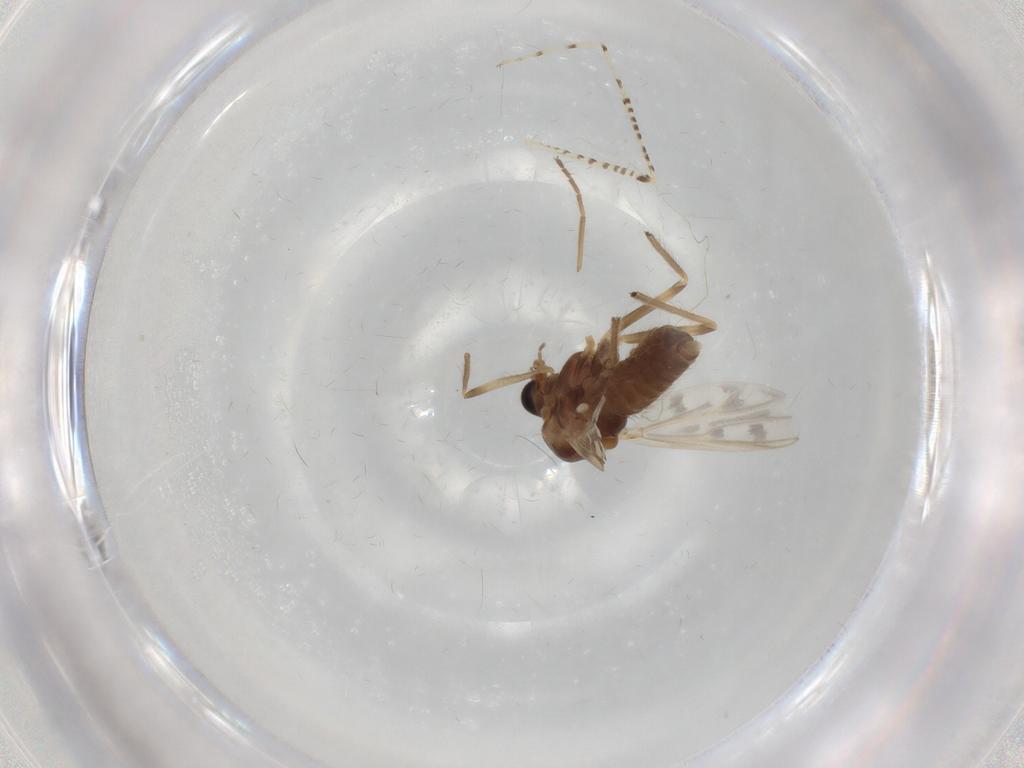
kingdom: Animalia
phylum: Arthropoda
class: Insecta
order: Diptera
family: Chironomidae
